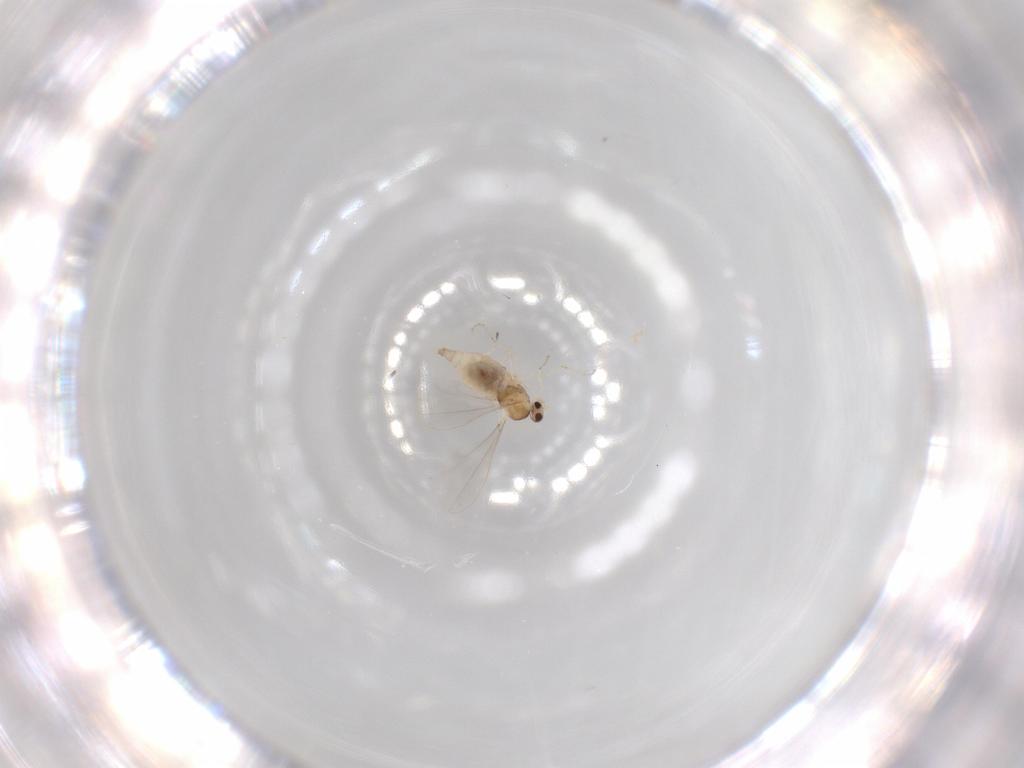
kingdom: Animalia
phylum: Arthropoda
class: Insecta
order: Diptera
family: Cecidomyiidae
